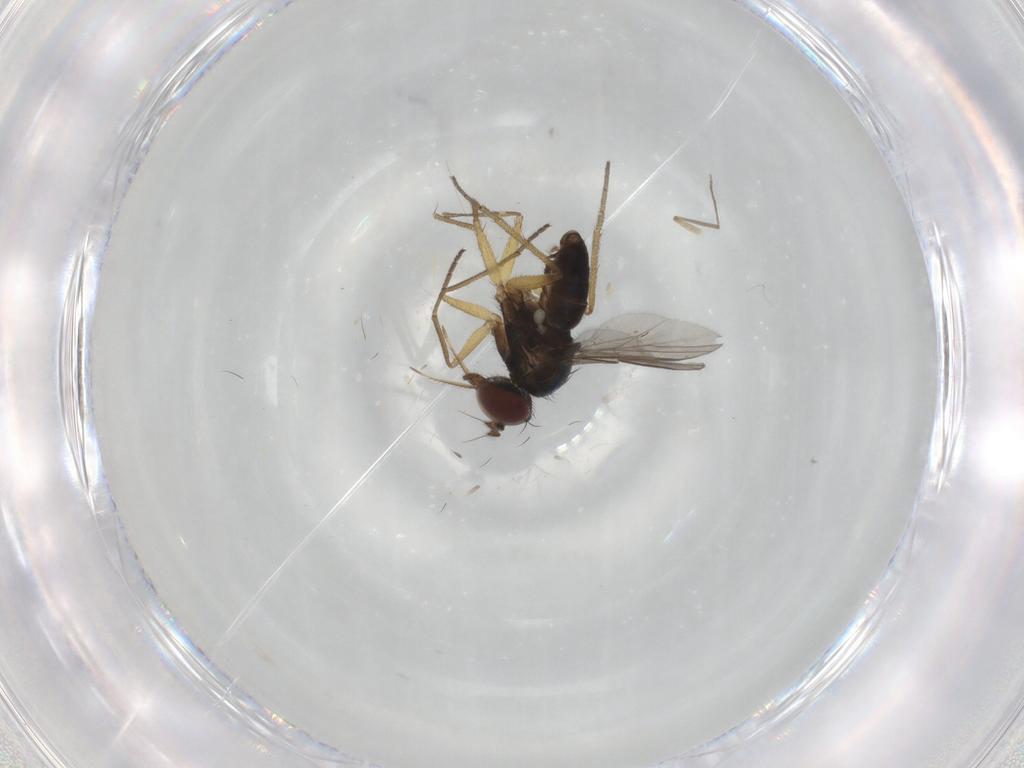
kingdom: Animalia
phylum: Arthropoda
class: Insecta
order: Diptera
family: Dolichopodidae
